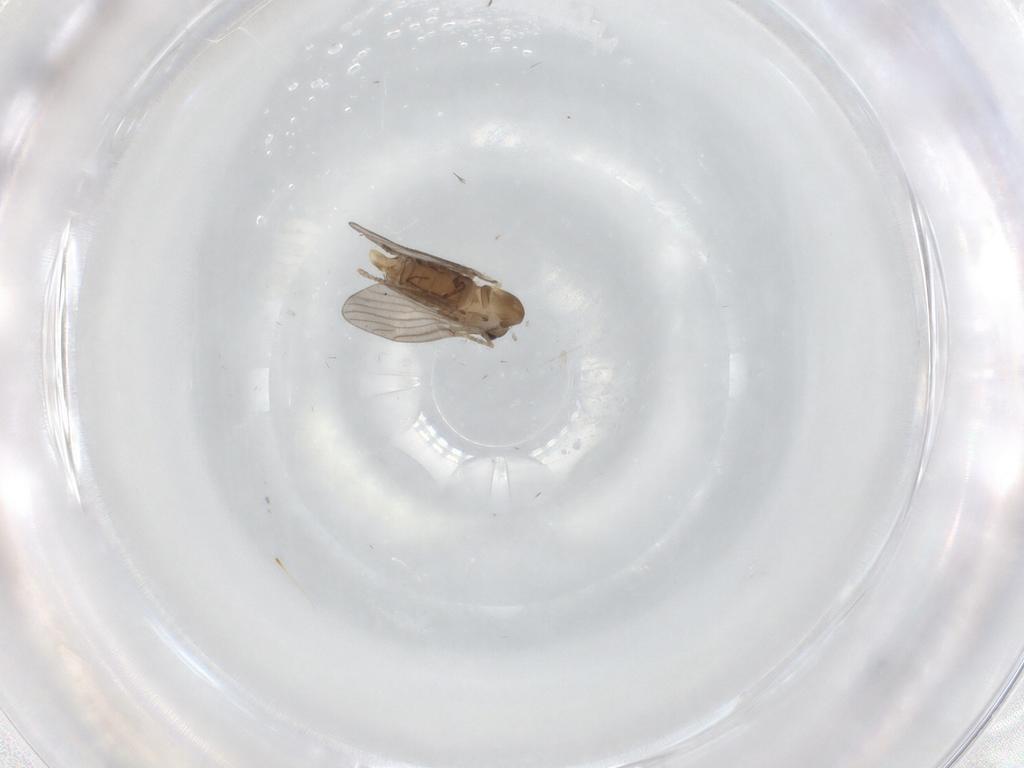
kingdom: Animalia
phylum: Arthropoda
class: Insecta
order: Diptera
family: Psychodidae
